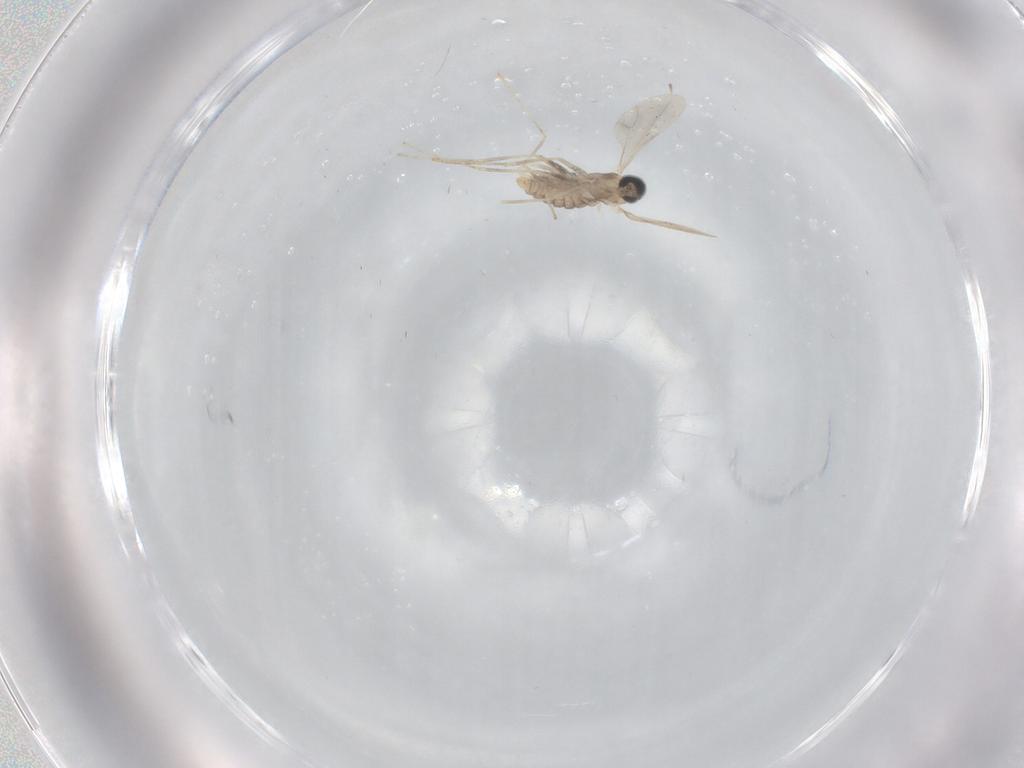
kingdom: Animalia
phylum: Arthropoda
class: Insecta
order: Diptera
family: Cecidomyiidae
